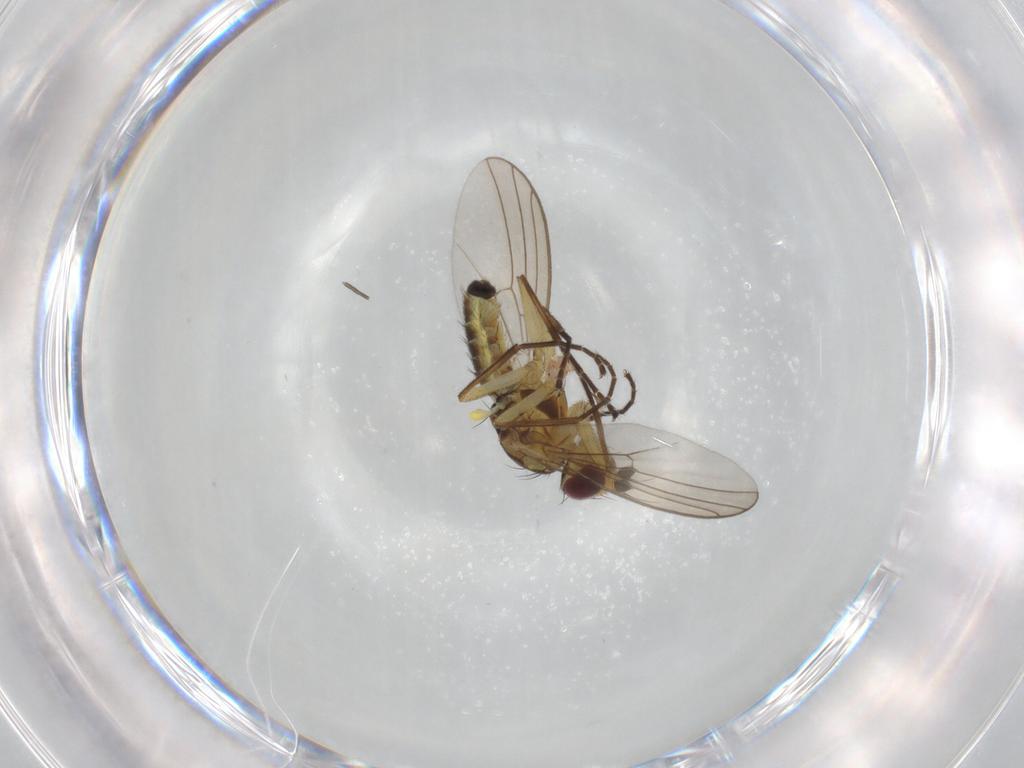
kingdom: Animalia
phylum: Arthropoda
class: Insecta
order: Diptera
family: Agromyzidae
